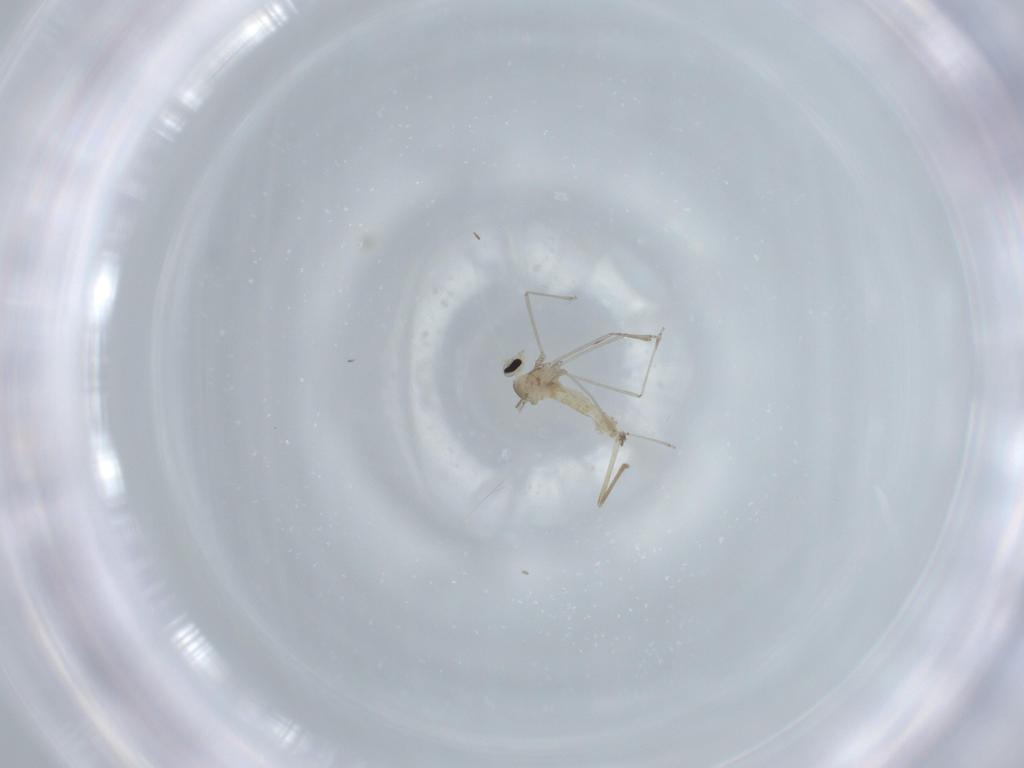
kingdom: Animalia
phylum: Arthropoda
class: Insecta
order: Diptera
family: Cecidomyiidae
